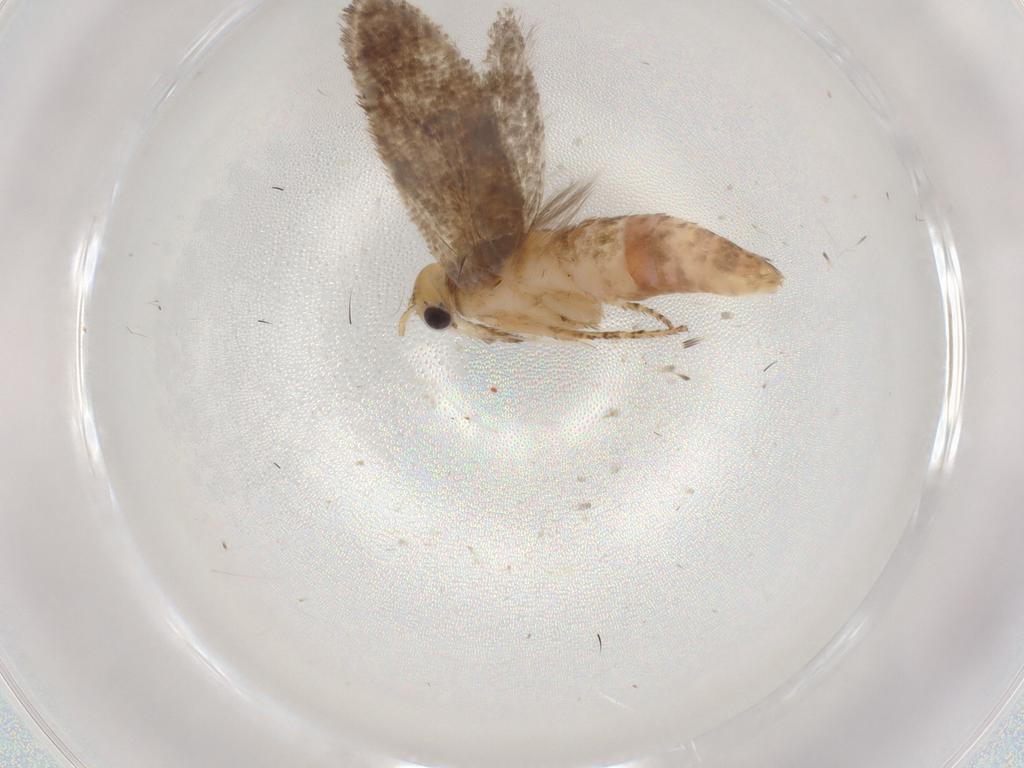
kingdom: Animalia
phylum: Arthropoda
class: Insecta
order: Lepidoptera
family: Plutellidae
